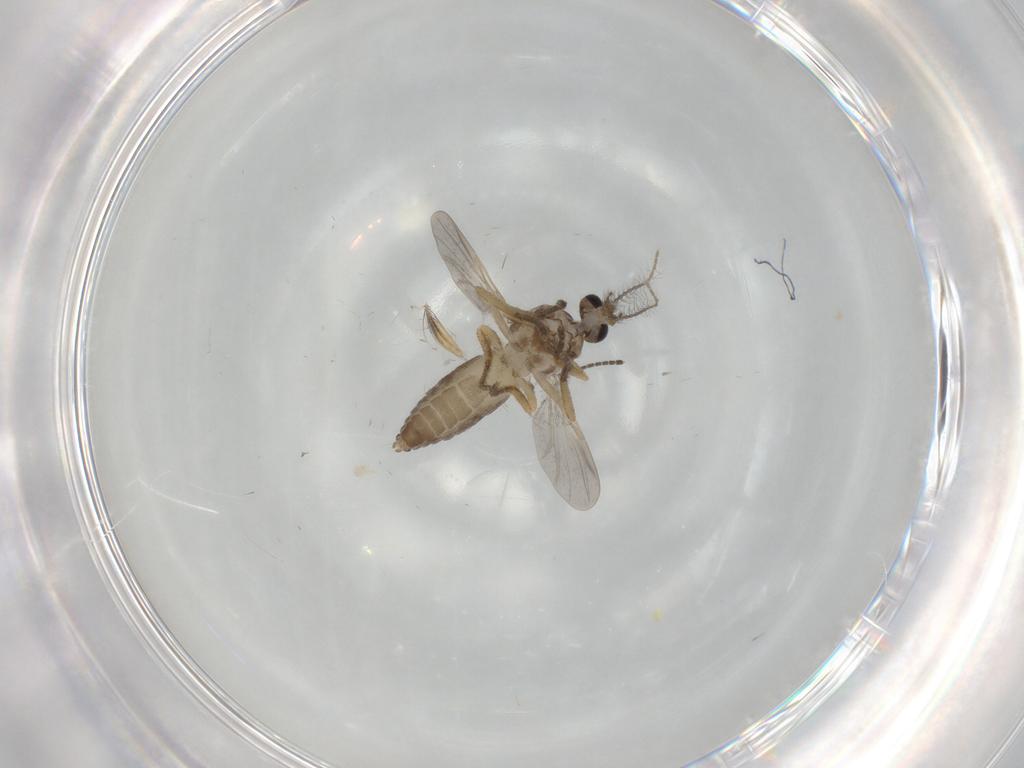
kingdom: Animalia
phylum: Arthropoda
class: Insecta
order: Diptera
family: Ceratopogonidae
